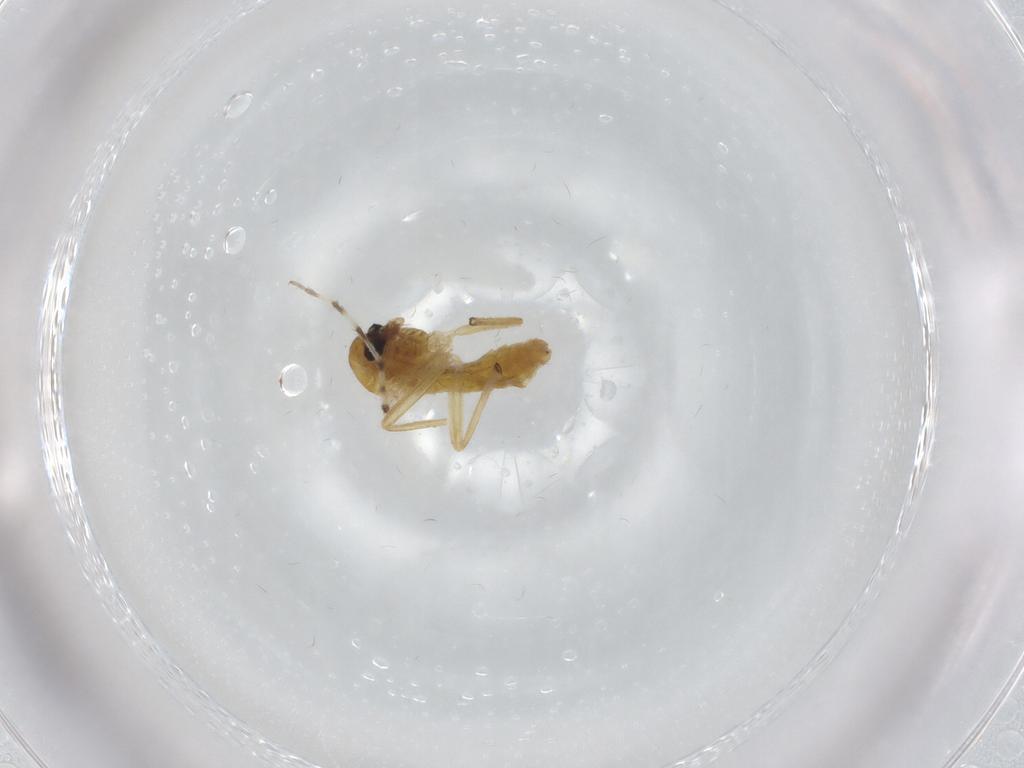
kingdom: Animalia
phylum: Arthropoda
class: Insecta
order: Diptera
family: Chironomidae
